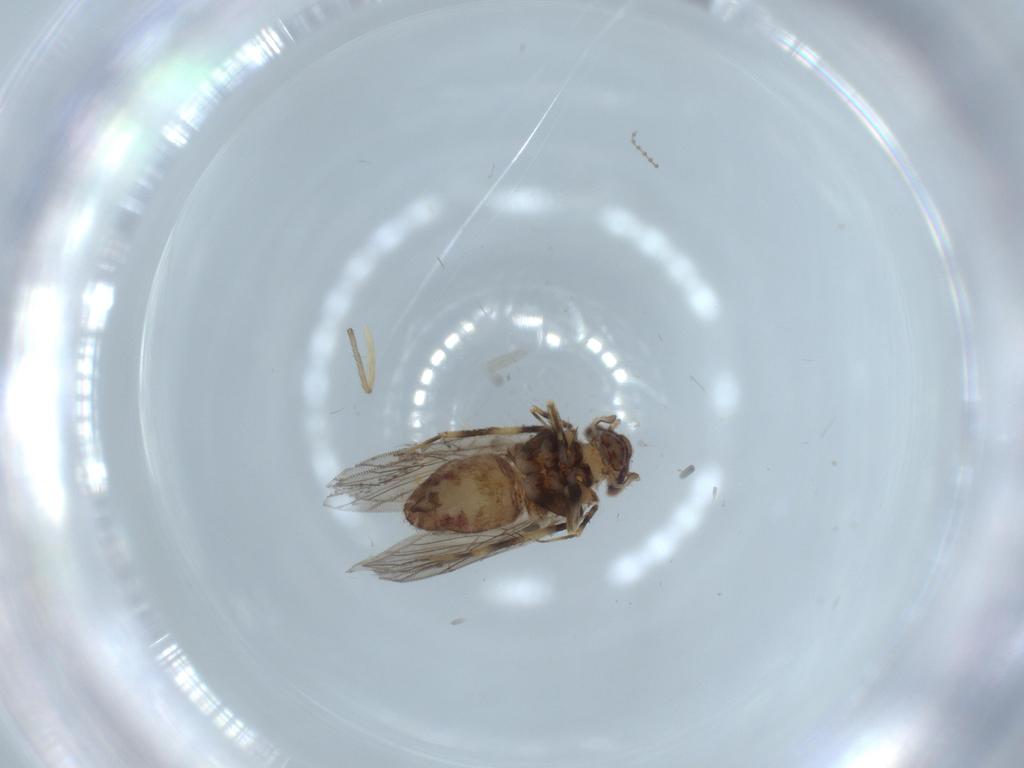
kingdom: Animalia
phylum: Arthropoda
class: Insecta
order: Psocodea
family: Lepidopsocidae
